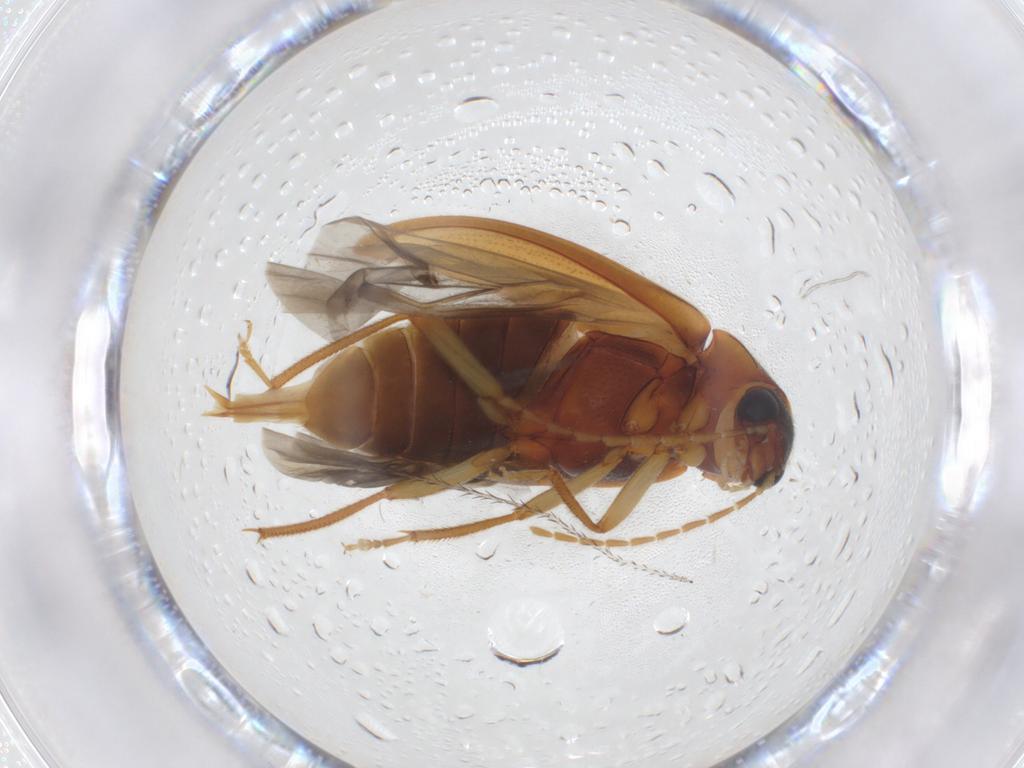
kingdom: Animalia
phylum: Arthropoda
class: Insecta
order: Coleoptera
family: Ptilodactylidae
